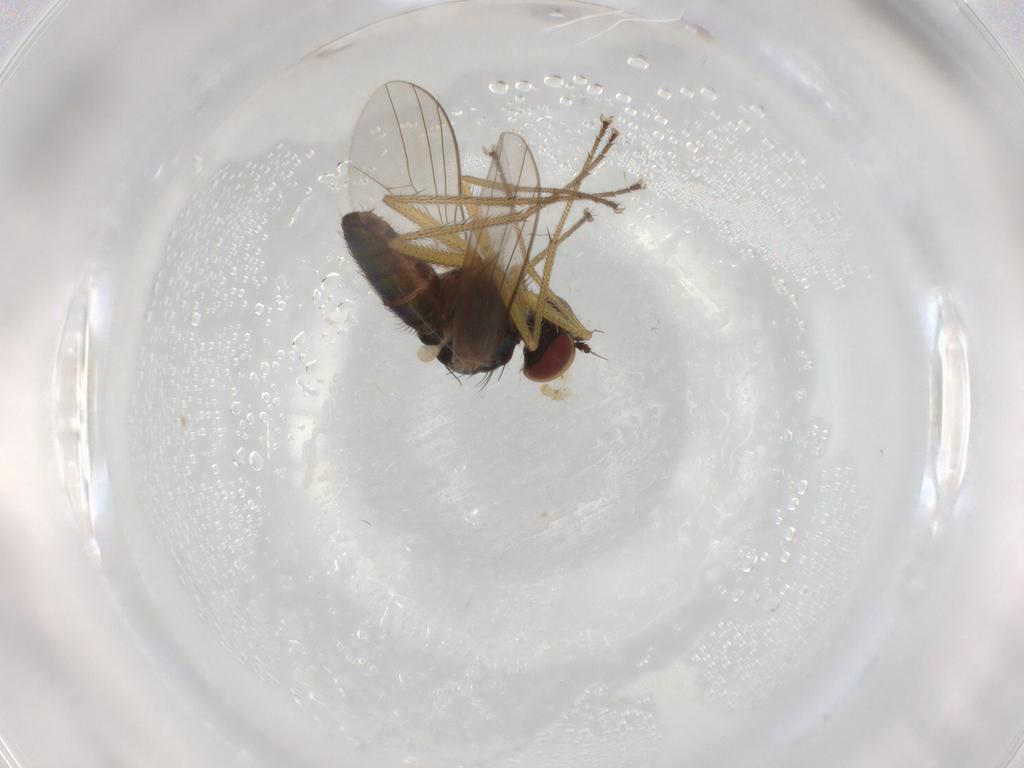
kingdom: Animalia
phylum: Arthropoda
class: Insecta
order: Diptera
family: Dolichopodidae
